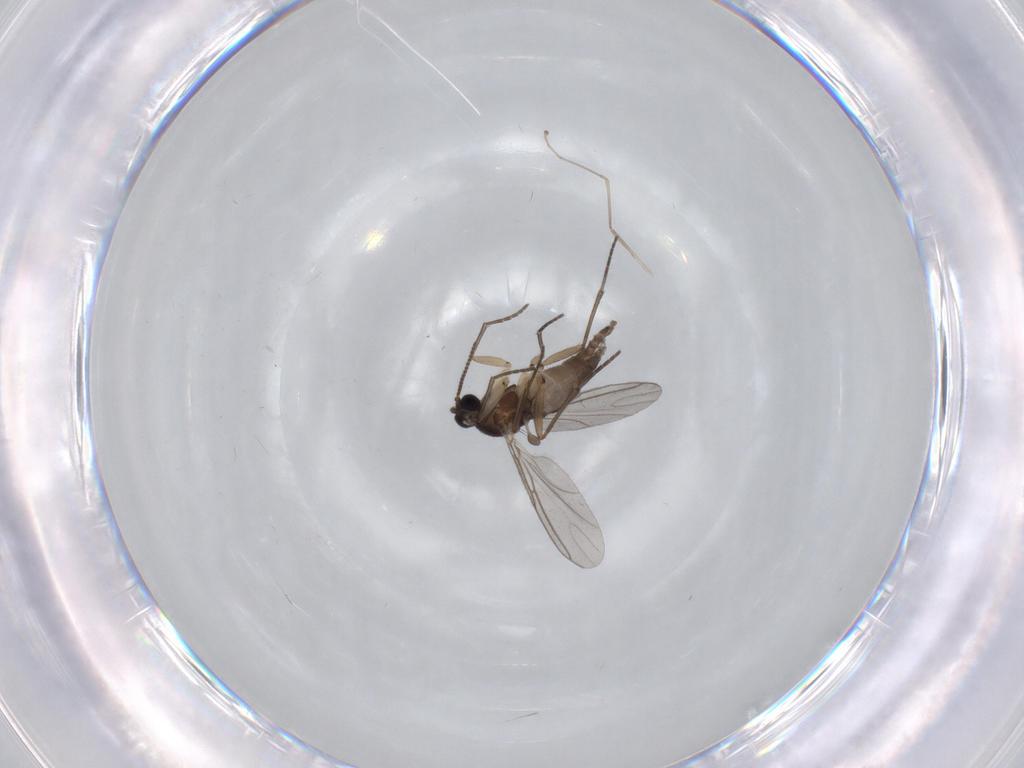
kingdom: Animalia
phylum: Arthropoda
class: Insecta
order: Diptera
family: Sciaridae
